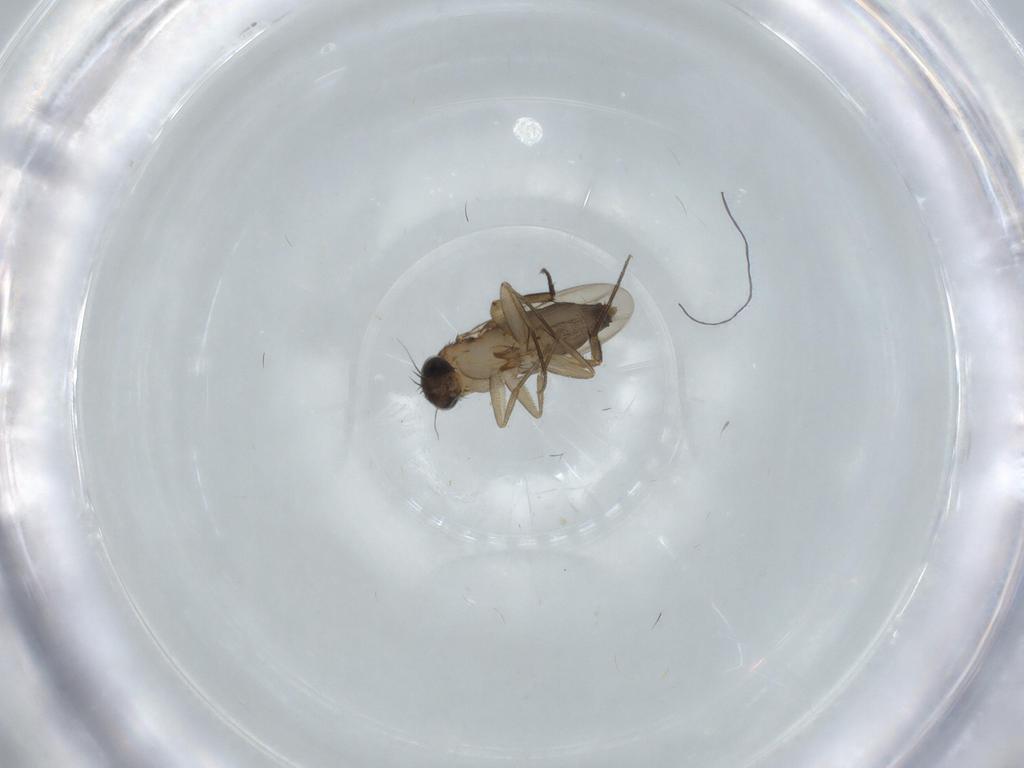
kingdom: Animalia
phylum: Arthropoda
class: Insecta
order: Diptera
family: Phoridae
